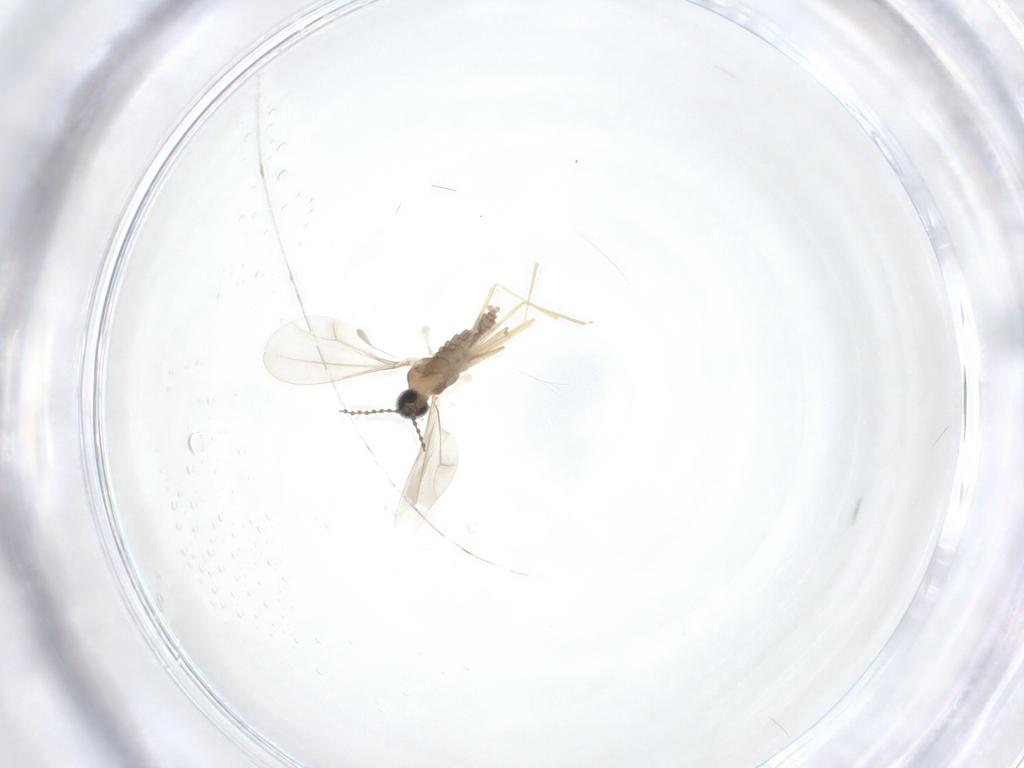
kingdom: Animalia
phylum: Arthropoda
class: Insecta
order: Diptera
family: Cecidomyiidae
